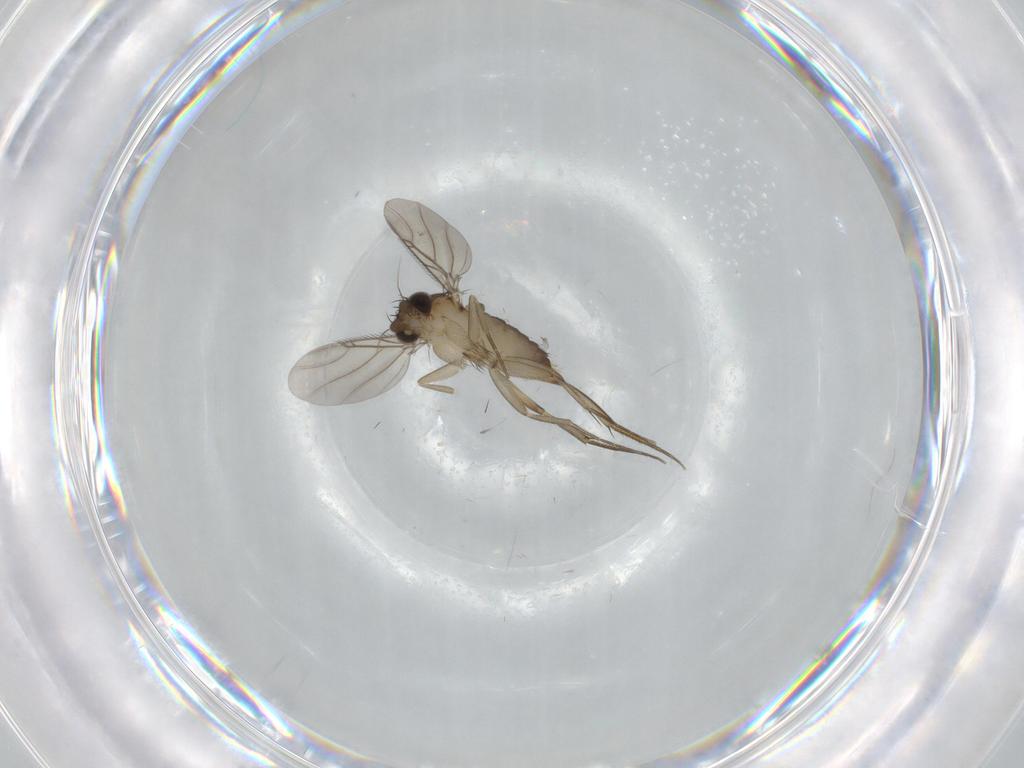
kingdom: Animalia
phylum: Arthropoda
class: Insecta
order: Diptera
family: Phoridae
